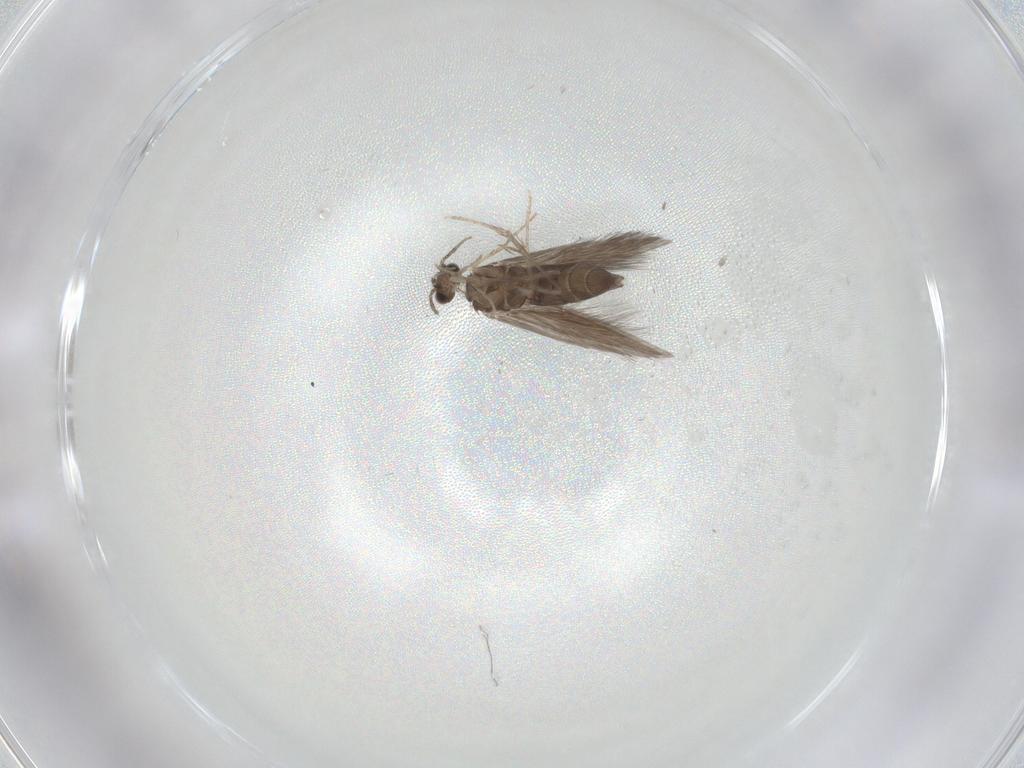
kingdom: Animalia
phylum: Arthropoda
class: Insecta
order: Trichoptera
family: Hydroptilidae
